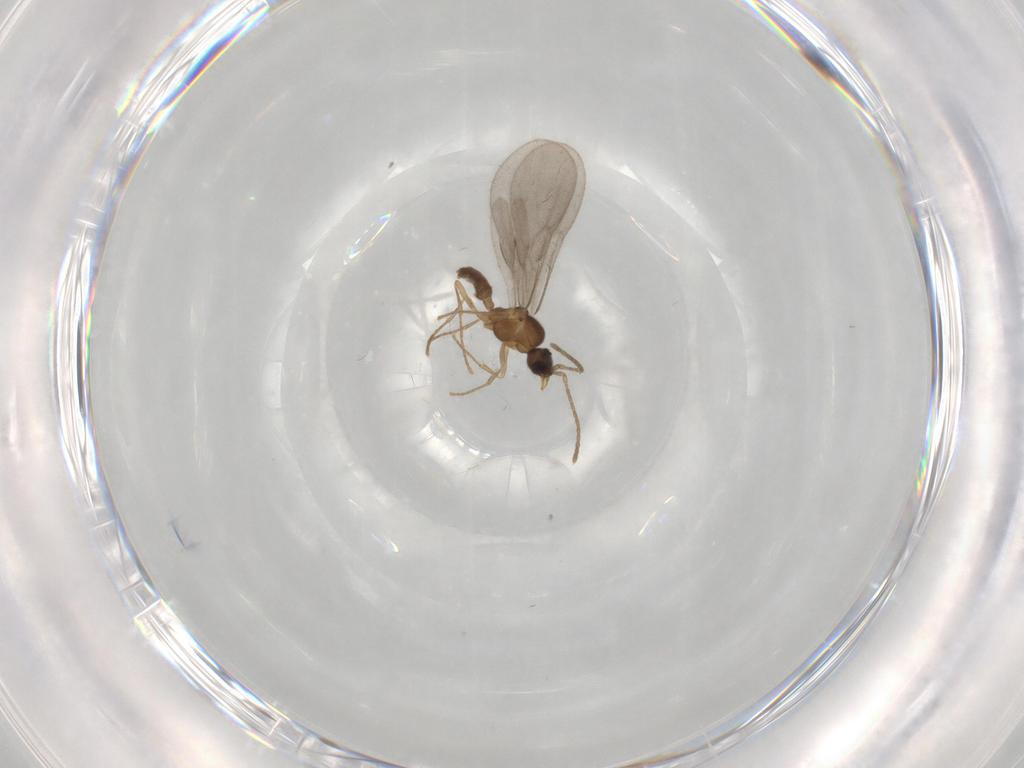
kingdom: Animalia
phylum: Arthropoda
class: Insecta
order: Hymenoptera
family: Formicidae
